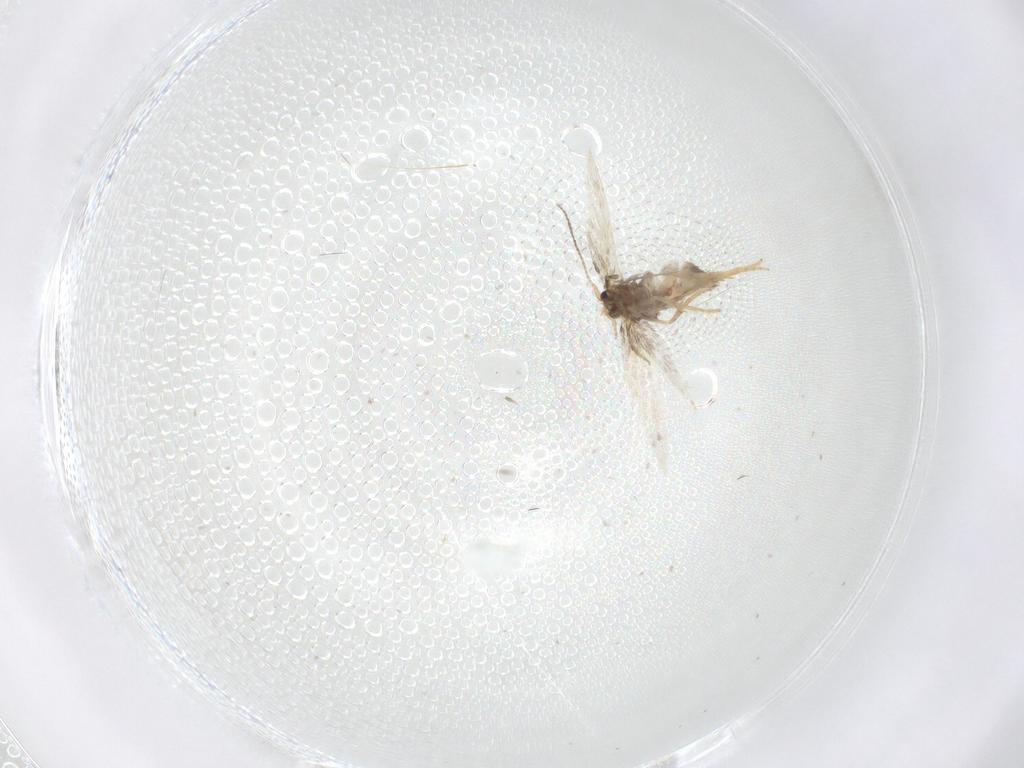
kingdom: Animalia
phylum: Arthropoda
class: Insecta
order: Lepidoptera
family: Nepticulidae
